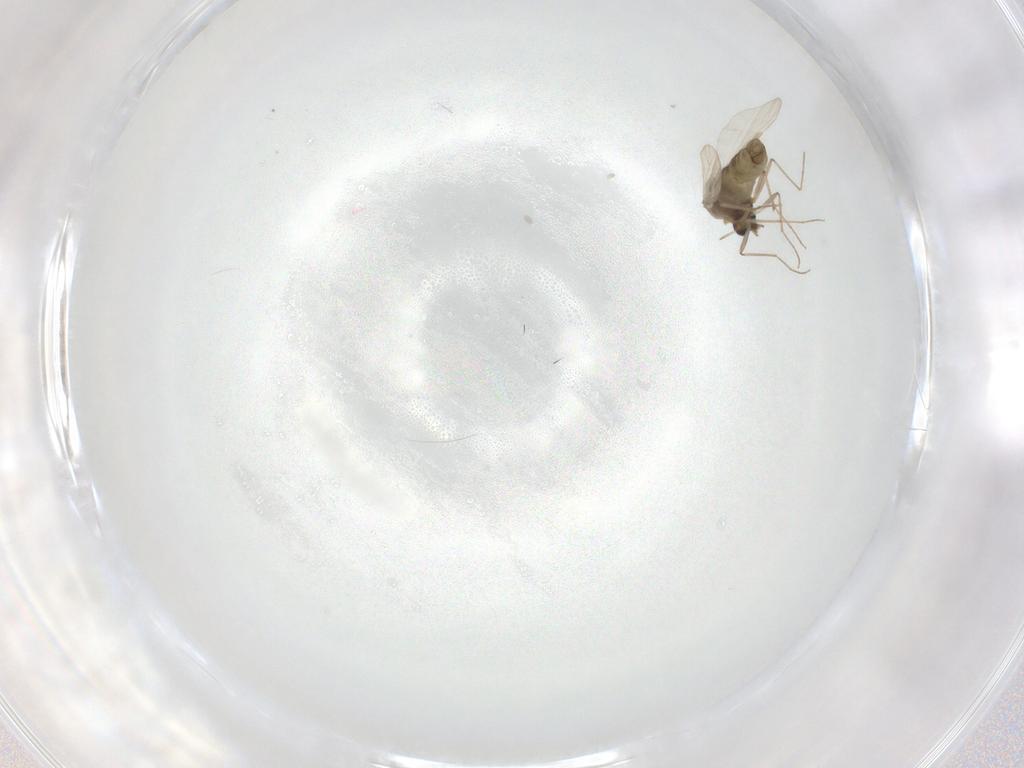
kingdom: Animalia
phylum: Arthropoda
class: Insecta
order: Diptera
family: Chironomidae
